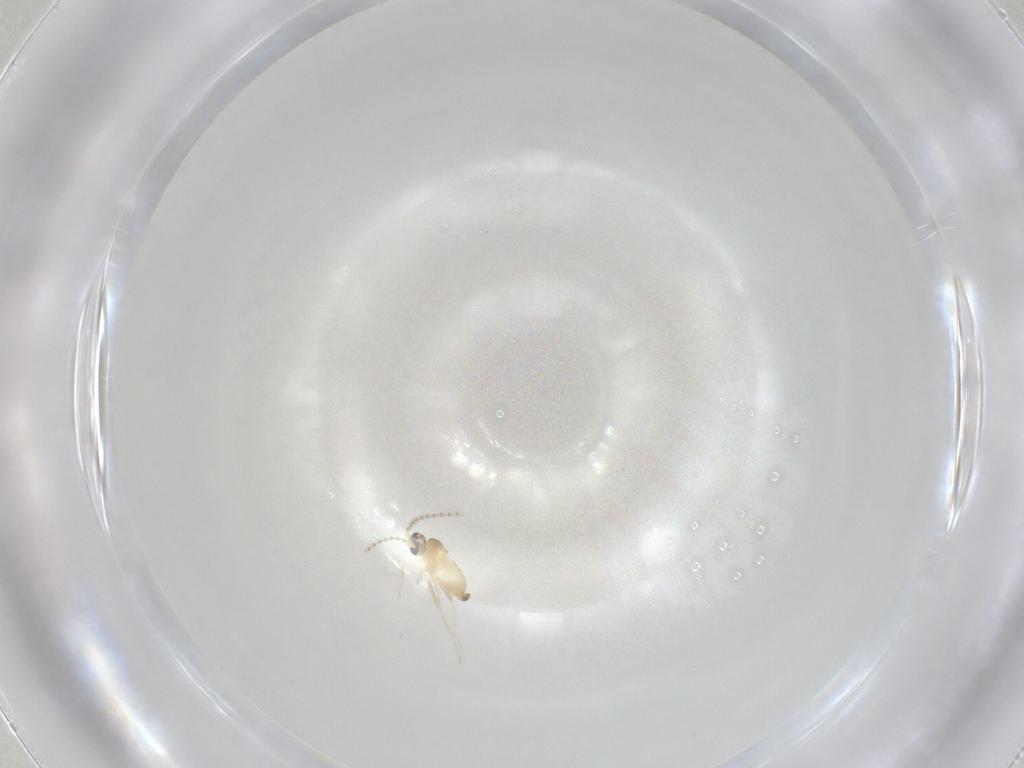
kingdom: Animalia
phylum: Arthropoda
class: Insecta
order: Diptera
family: Cecidomyiidae
